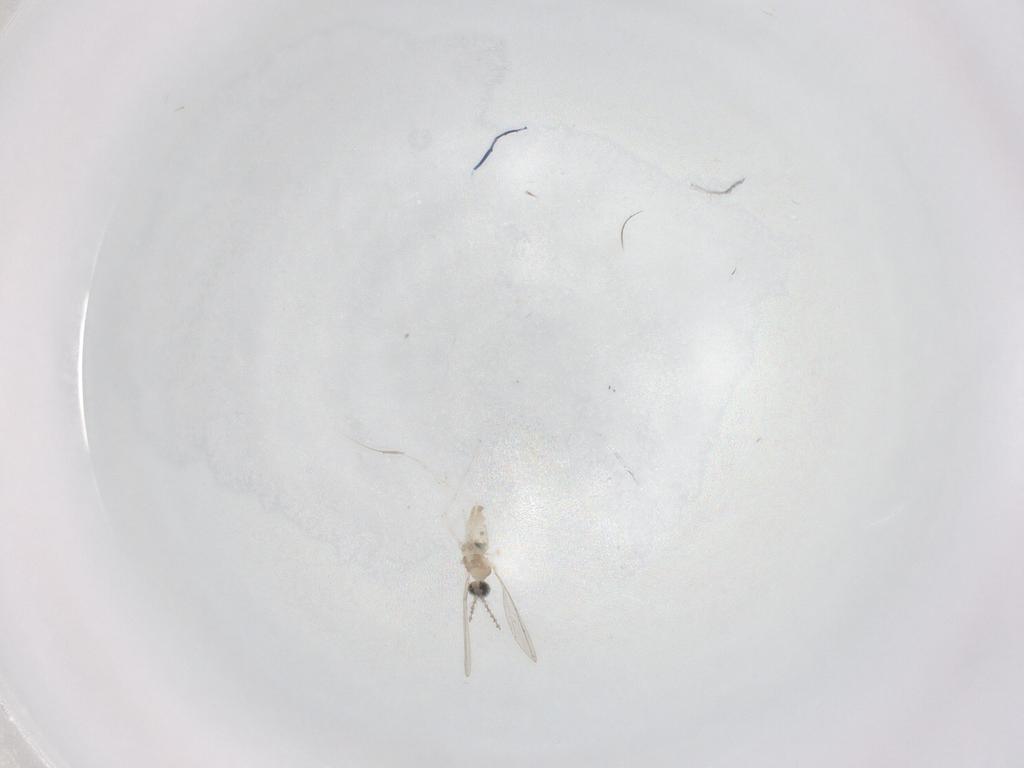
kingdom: Animalia
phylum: Arthropoda
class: Insecta
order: Diptera
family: Cecidomyiidae
